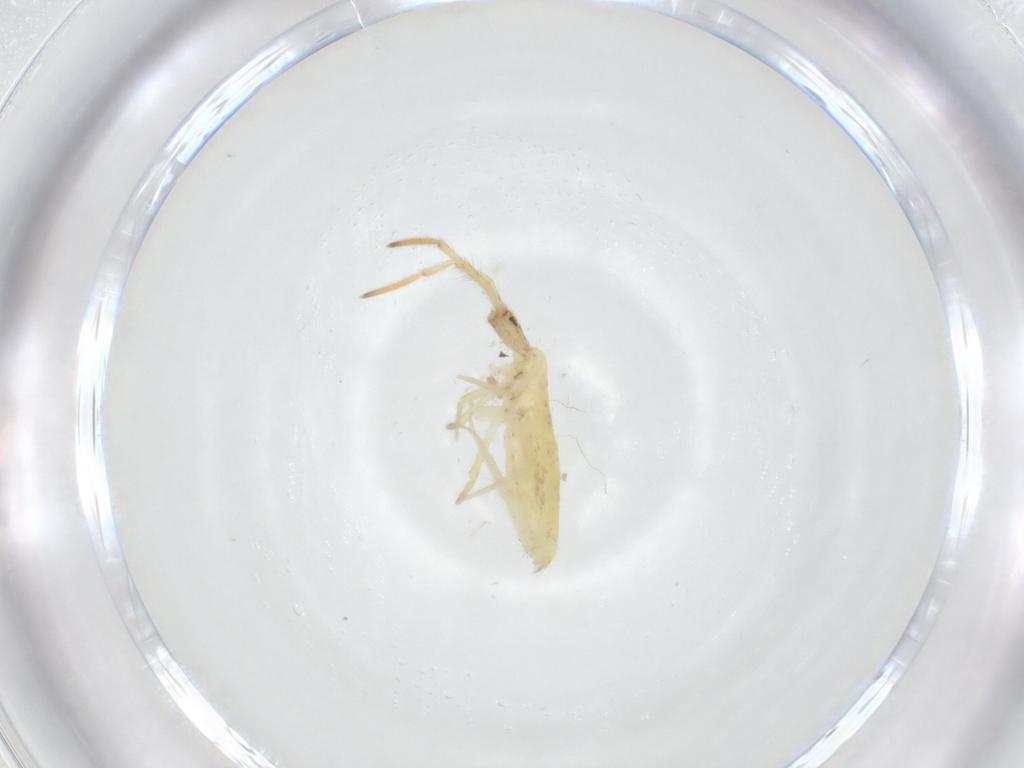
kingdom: Animalia
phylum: Arthropoda
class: Collembola
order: Entomobryomorpha
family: Entomobryidae
